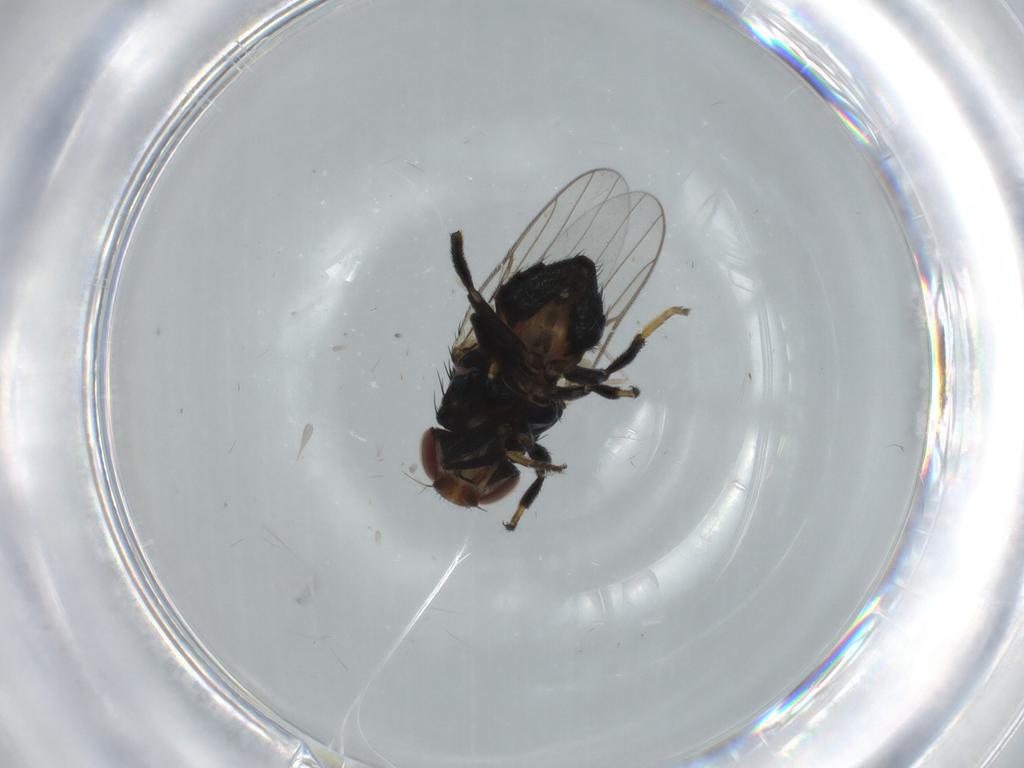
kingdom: Animalia
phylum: Arthropoda
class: Insecta
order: Diptera
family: Chloropidae
